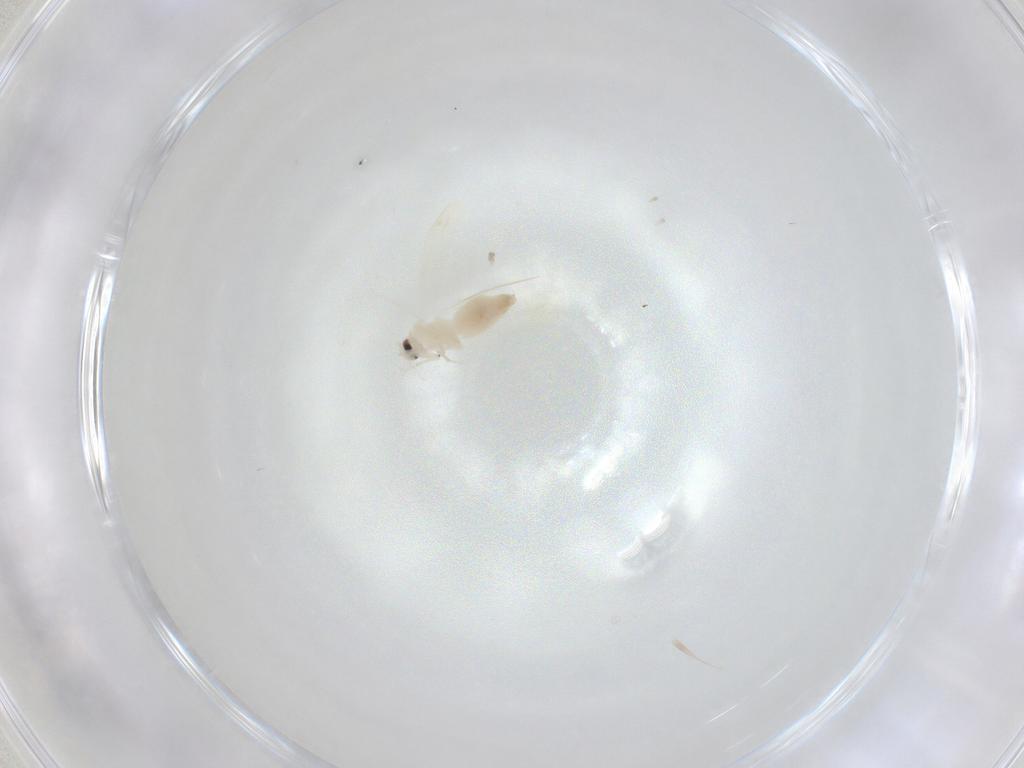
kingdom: Animalia
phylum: Arthropoda
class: Insecta
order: Hemiptera
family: Aleyrodidae
